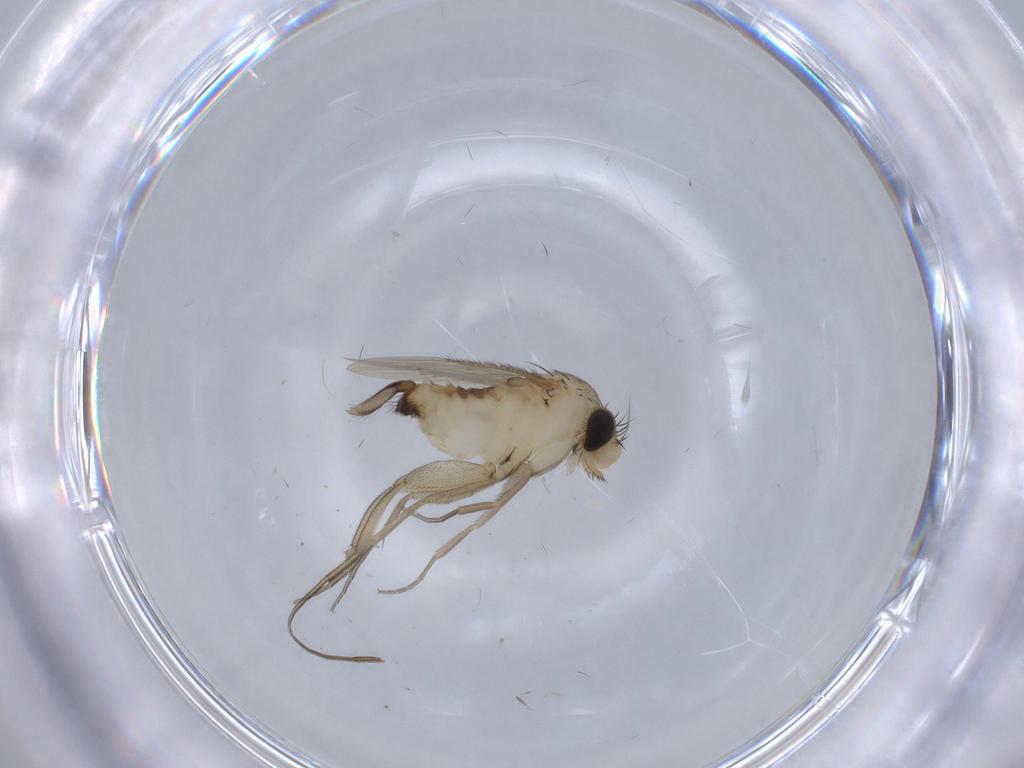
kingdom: Animalia
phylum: Arthropoda
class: Insecta
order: Diptera
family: Phoridae
